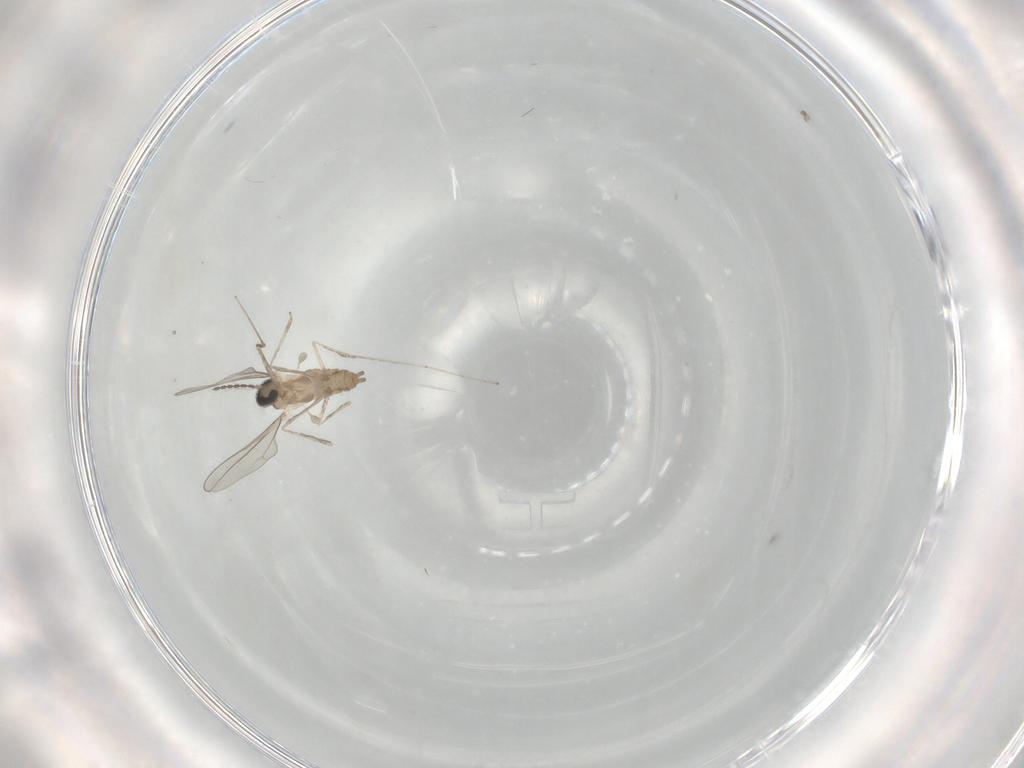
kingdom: Animalia
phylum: Arthropoda
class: Insecta
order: Diptera
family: Cecidomyiidae
